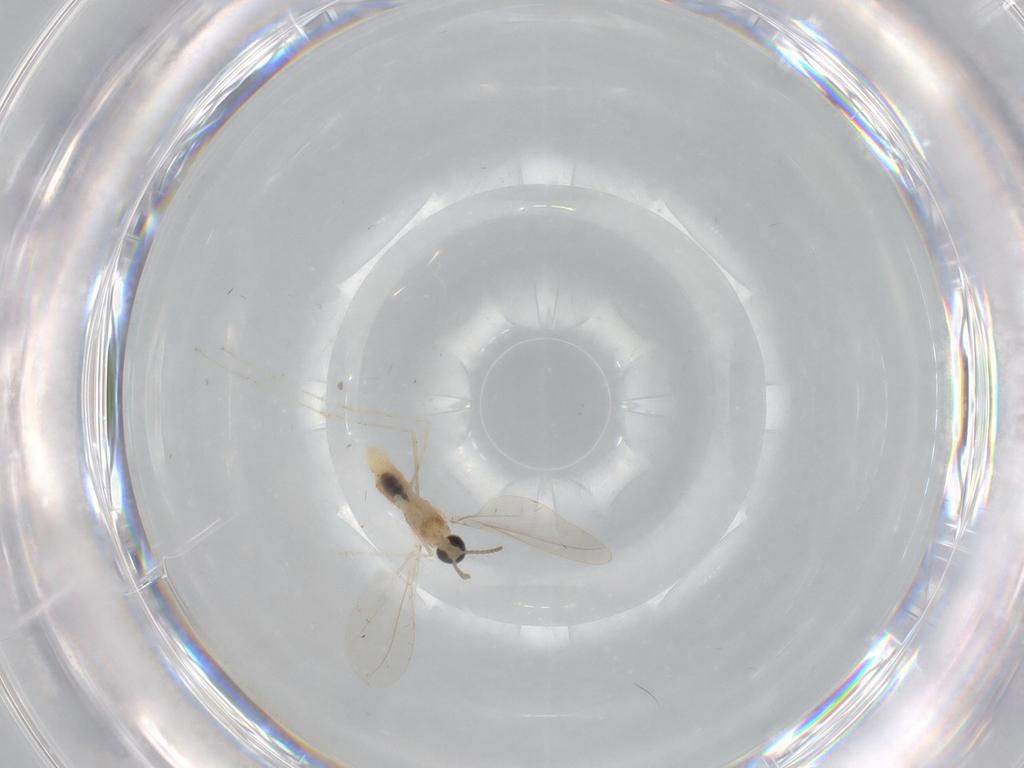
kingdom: Animalia
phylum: Arthropoda
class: Insecta
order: Diptera
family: Cecidomyiidae
